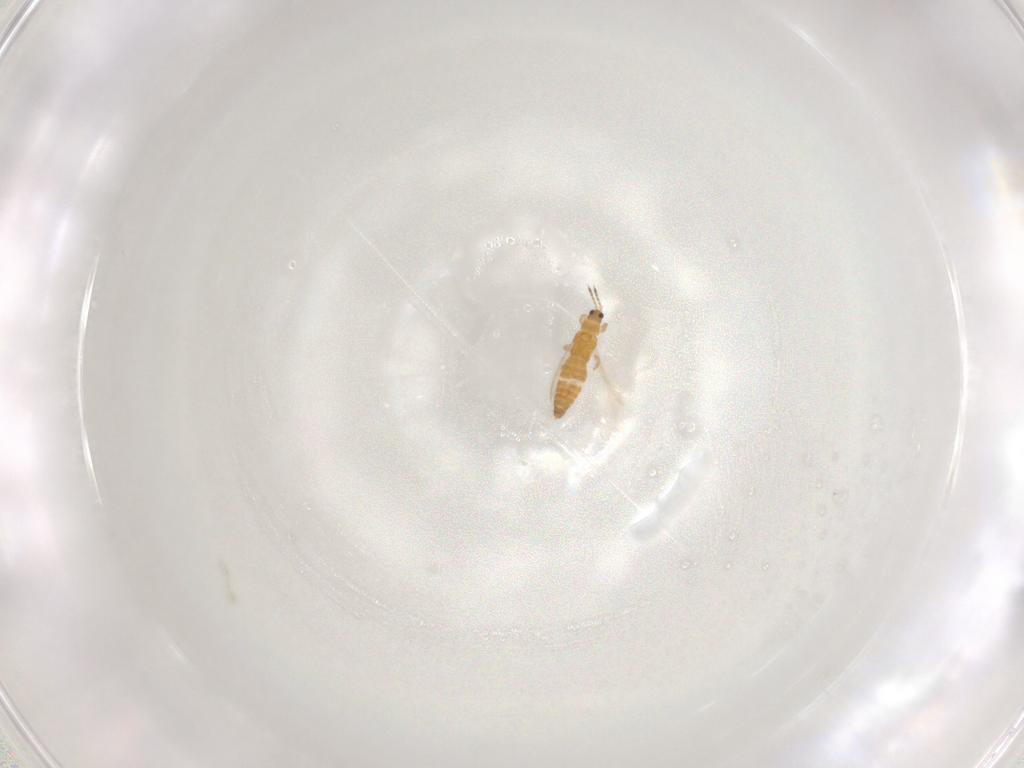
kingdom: Animalia
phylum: Arthropoda
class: Insecta
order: Thysanoptera
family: Thripidae
